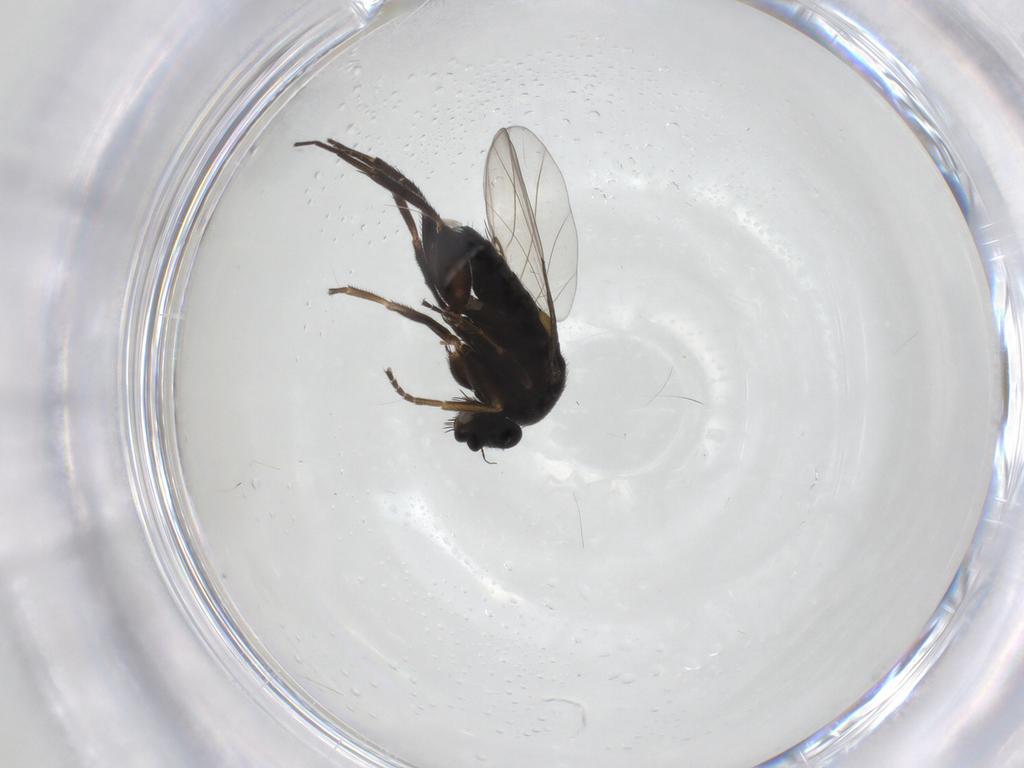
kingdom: Animalia
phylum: Arthropoda
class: Insecta
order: Diptera
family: Phoridae
